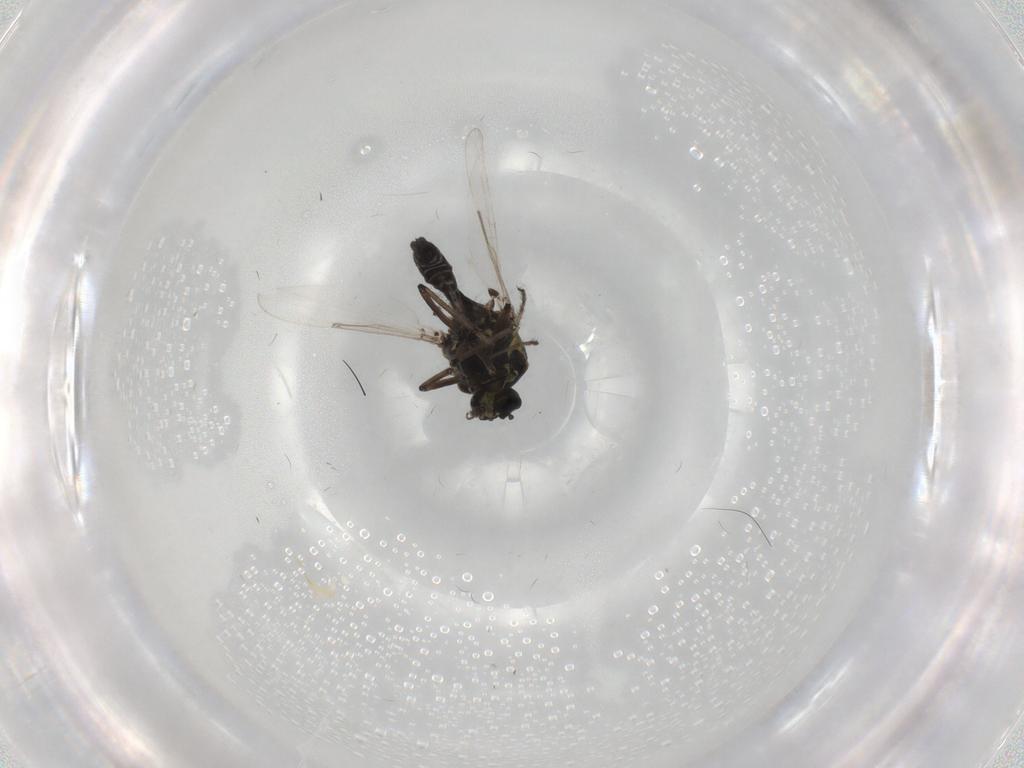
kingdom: Animalia
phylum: Arthropoda
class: Insecta
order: Diptera
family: Ceratopogonidae
